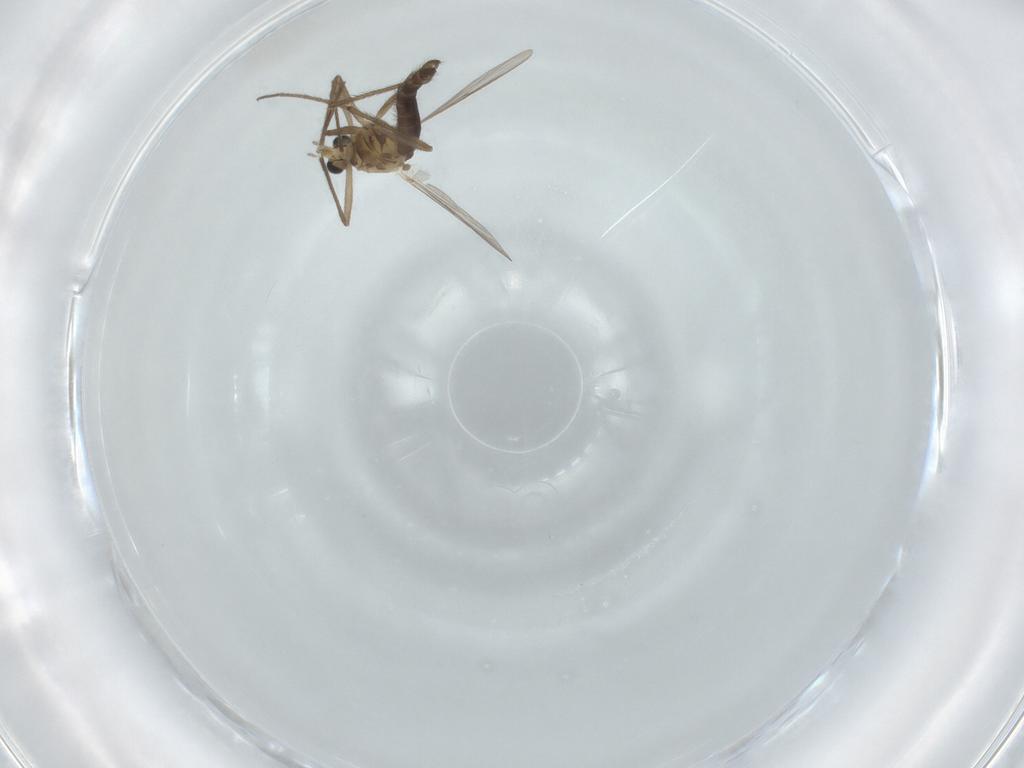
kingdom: Animalia
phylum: Arthropoda
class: Insecta
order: Diptera
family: Chironomidae
